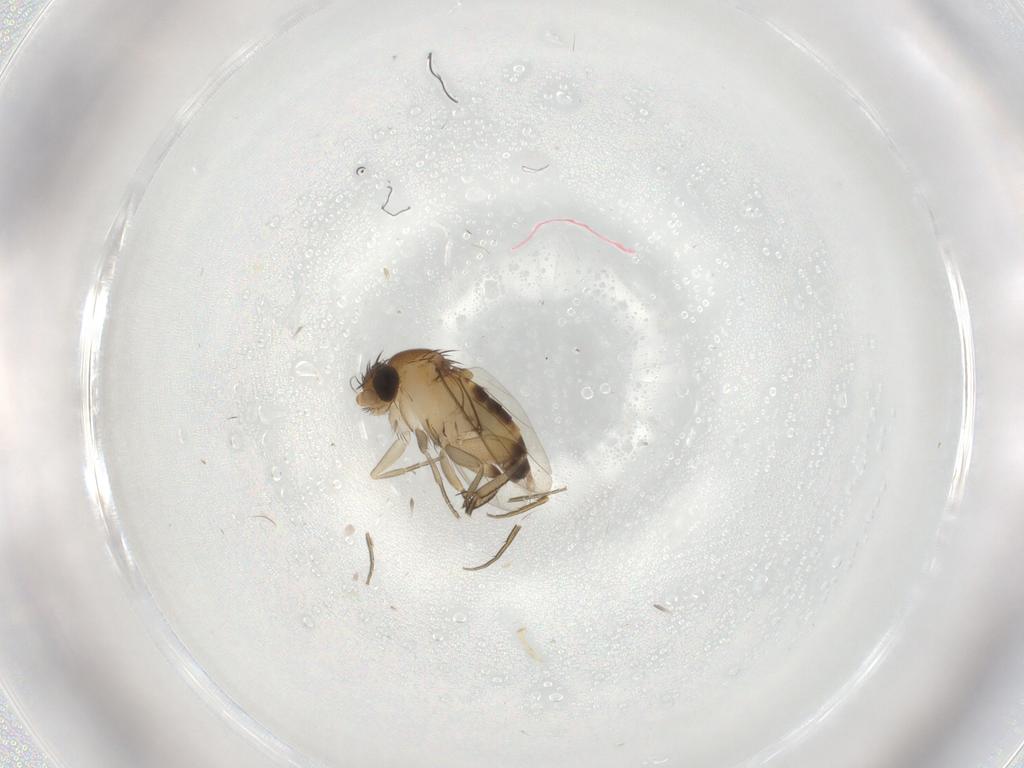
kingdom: Animalia
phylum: Arthropoda
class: Insecta
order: Diptera
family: Phoridae
